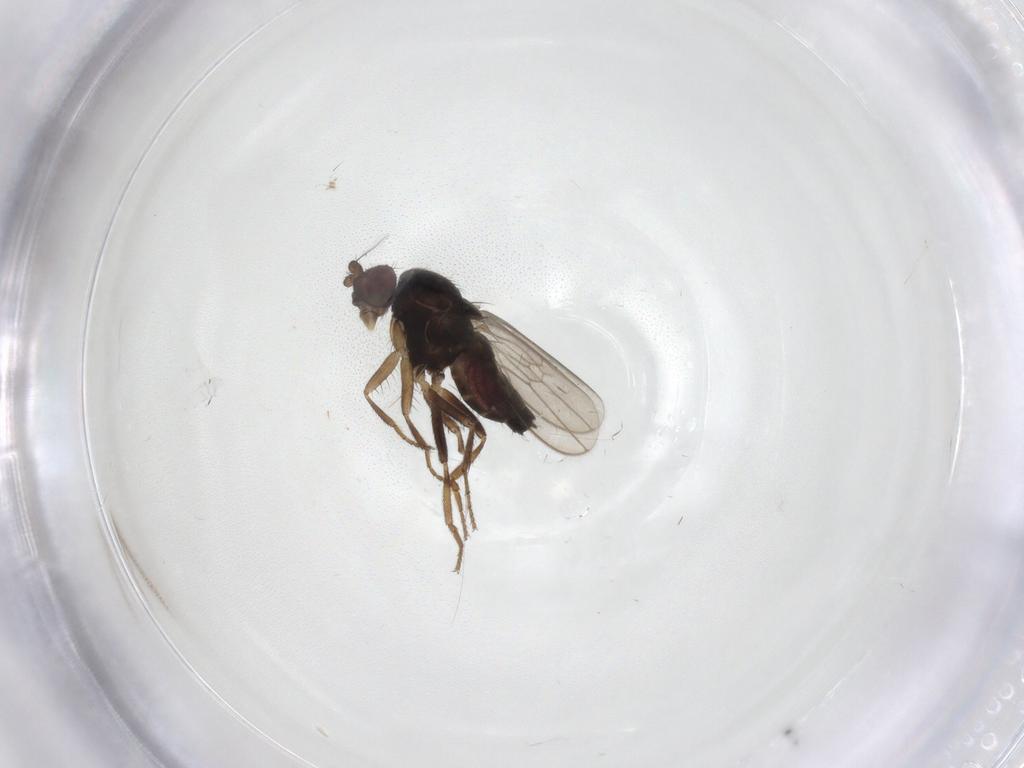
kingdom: Animalia
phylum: Arthropoda
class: Insecta
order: Diptera
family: Sphaeroceridae
